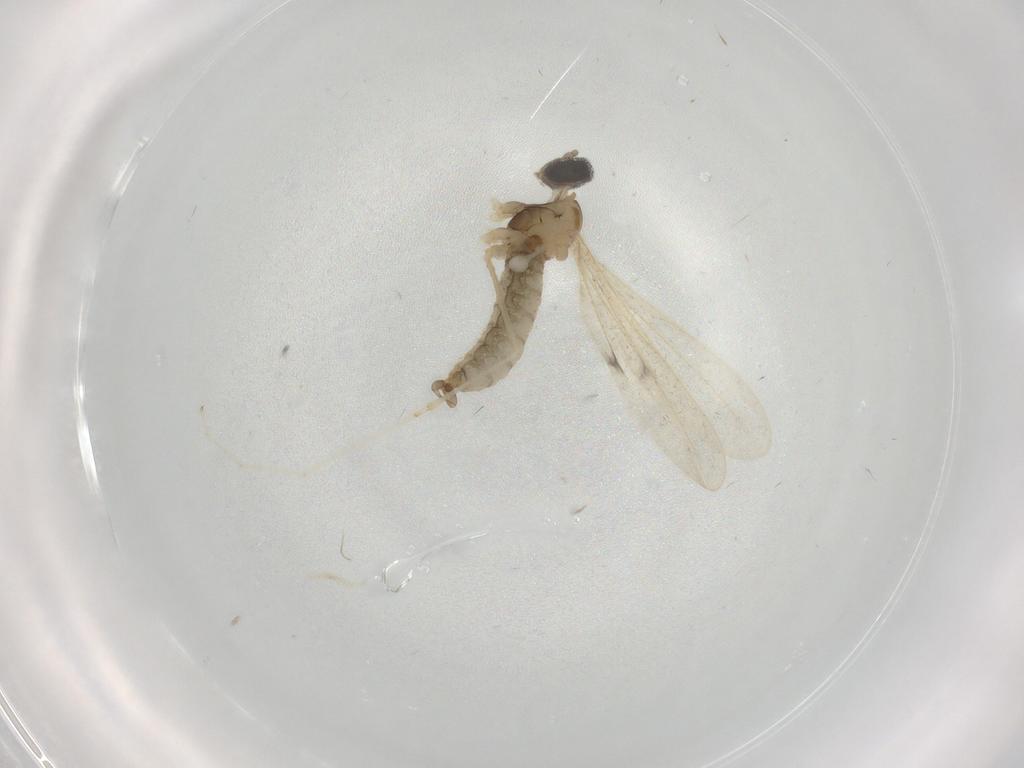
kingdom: Animalia
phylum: Arthropoda
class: Insecta
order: Diptera
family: Cecidomyiidae
